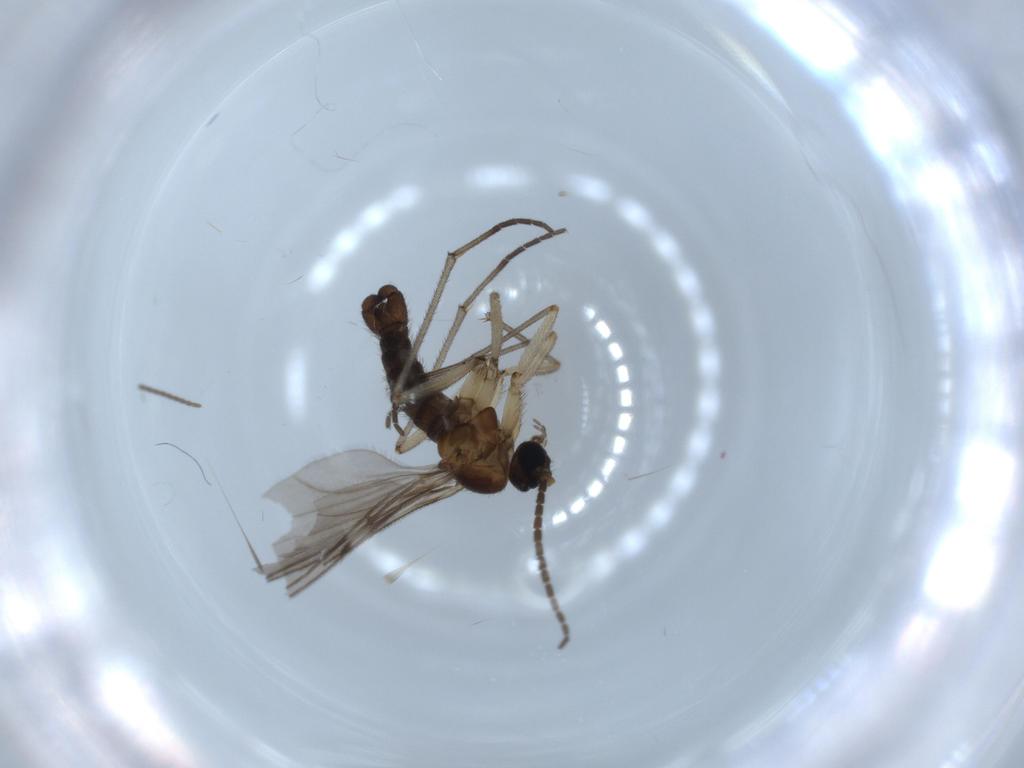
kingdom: Animalia
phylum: Arthropoda
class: Insecta
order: Diptera
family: Sciaridae
